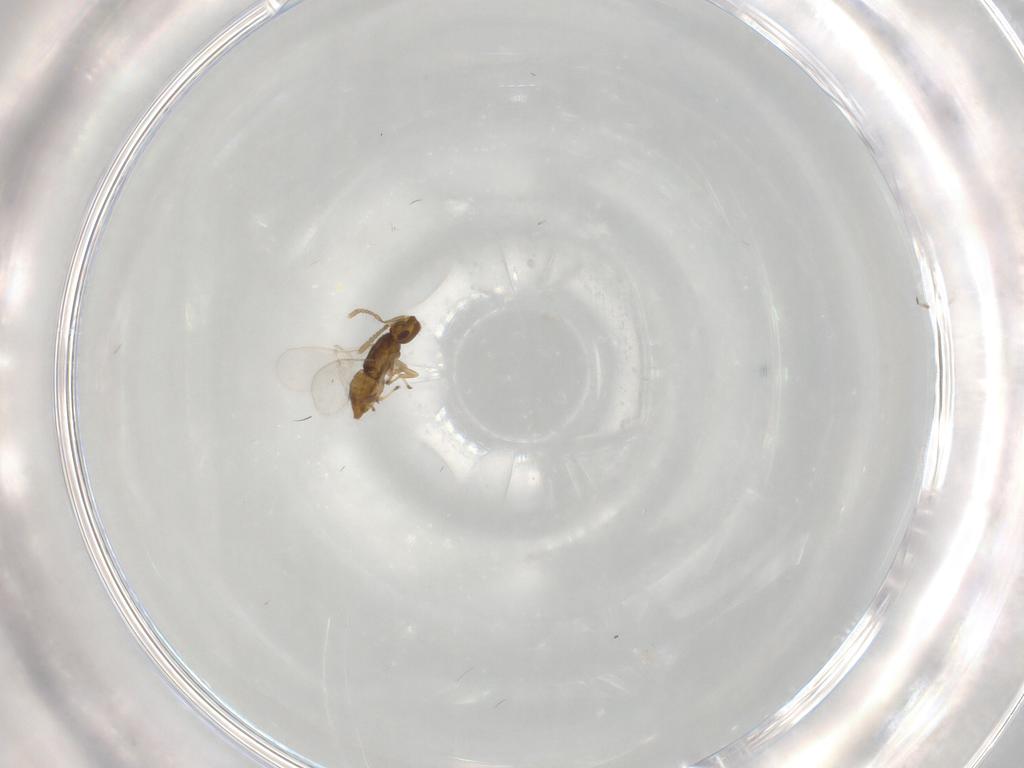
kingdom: Animalia
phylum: Arthropoda
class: Insecta
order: Hymenoptera
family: Encyrtidae
